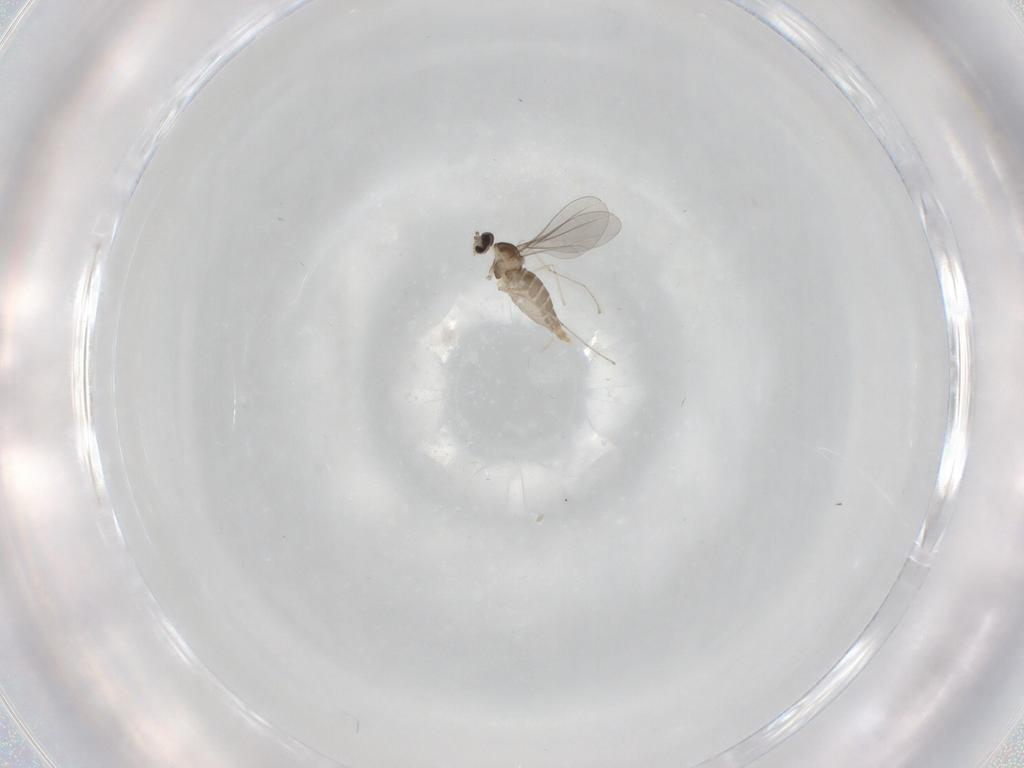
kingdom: Animalia
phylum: Arthropoda
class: Insecta
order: Diptera
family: Cecidomyiidae
